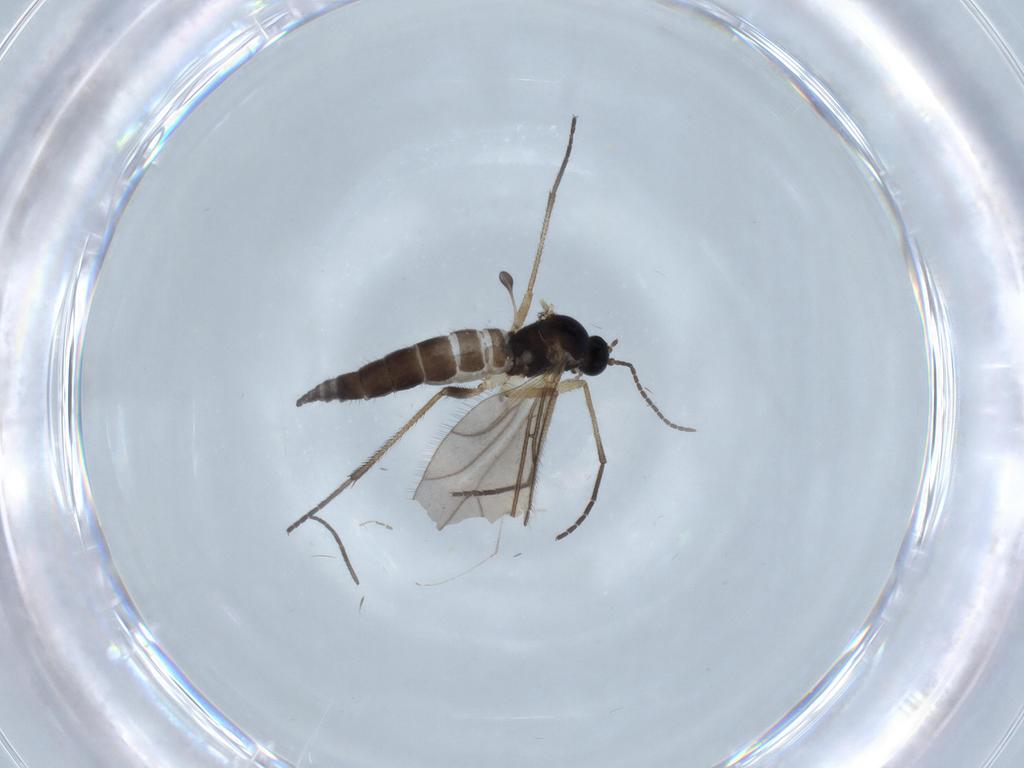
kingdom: Animalia
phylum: Arthropoda
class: Insecta
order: Diptera
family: Sciaridae
